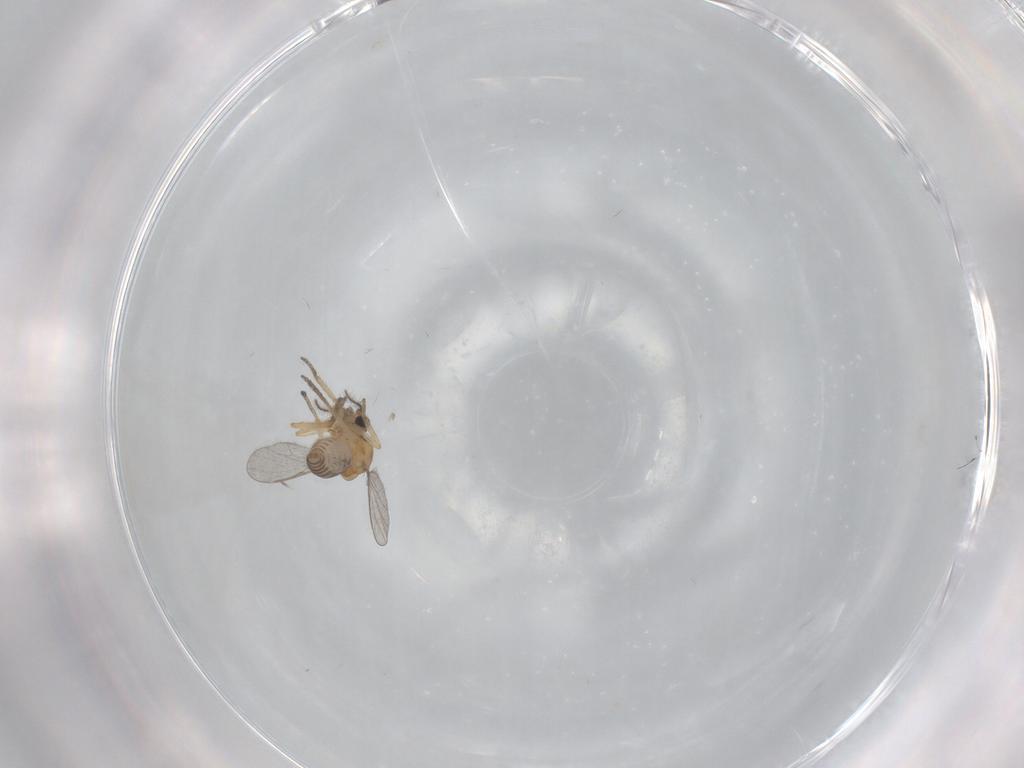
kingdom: Animalia
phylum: Arthropoda
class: Insecta
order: Diptera
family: Ceratopogonidae
